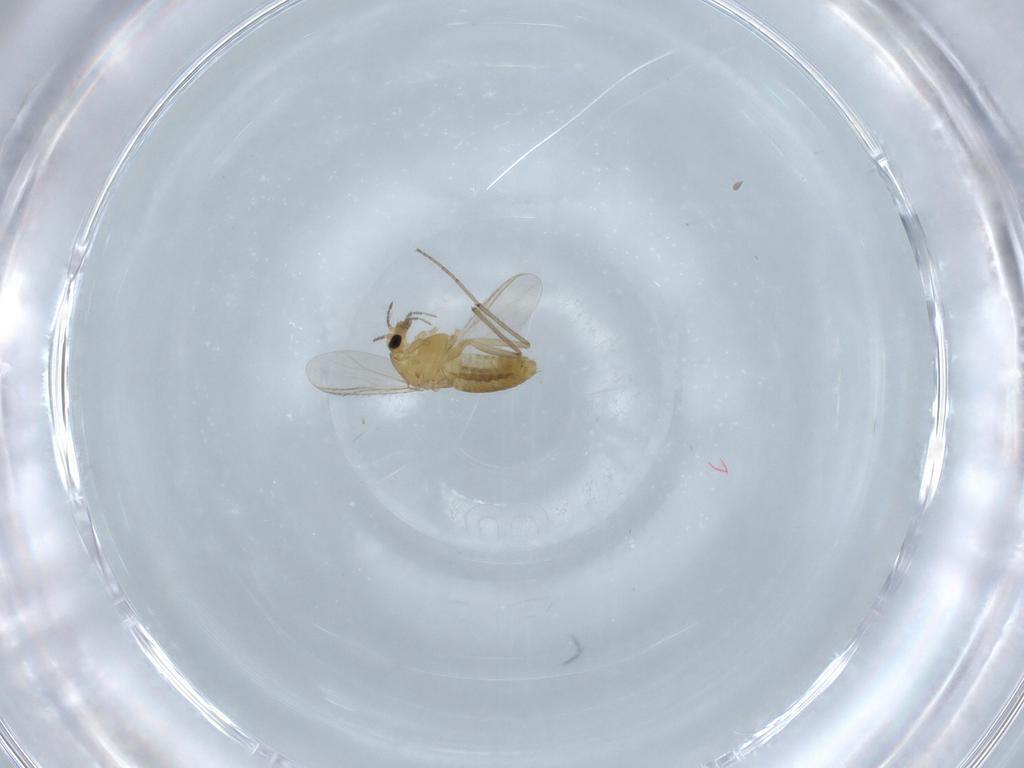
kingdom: Animalia
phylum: Arthropoda
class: Insecta
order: Diptera
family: Chironomidae
